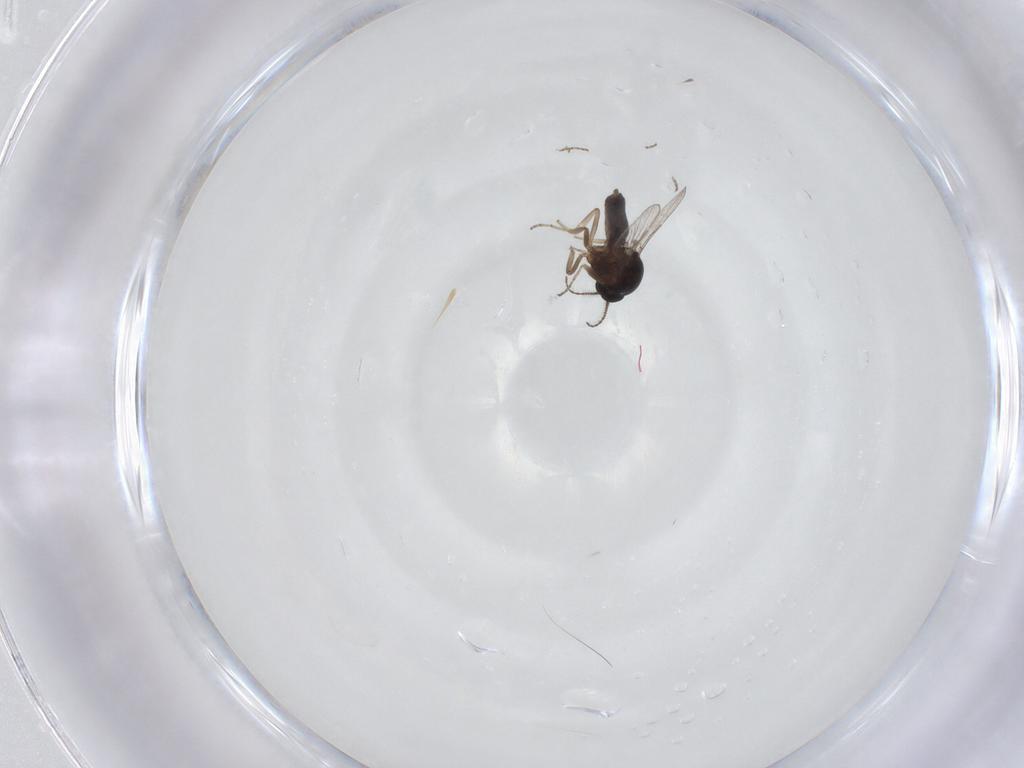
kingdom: Animalia
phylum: Arthropoda
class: Insecta
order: Diptera
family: Ceratopogonidae
